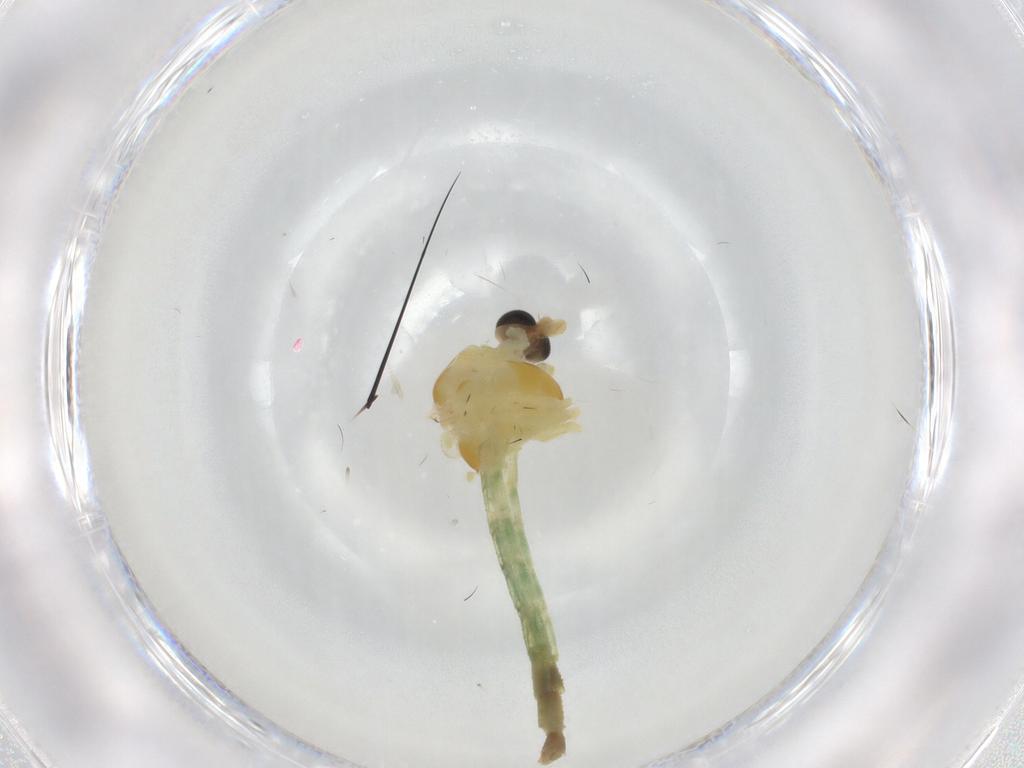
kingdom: Animalia
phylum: Arthropoda
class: Insecta
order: Diptera
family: Chironomidae
